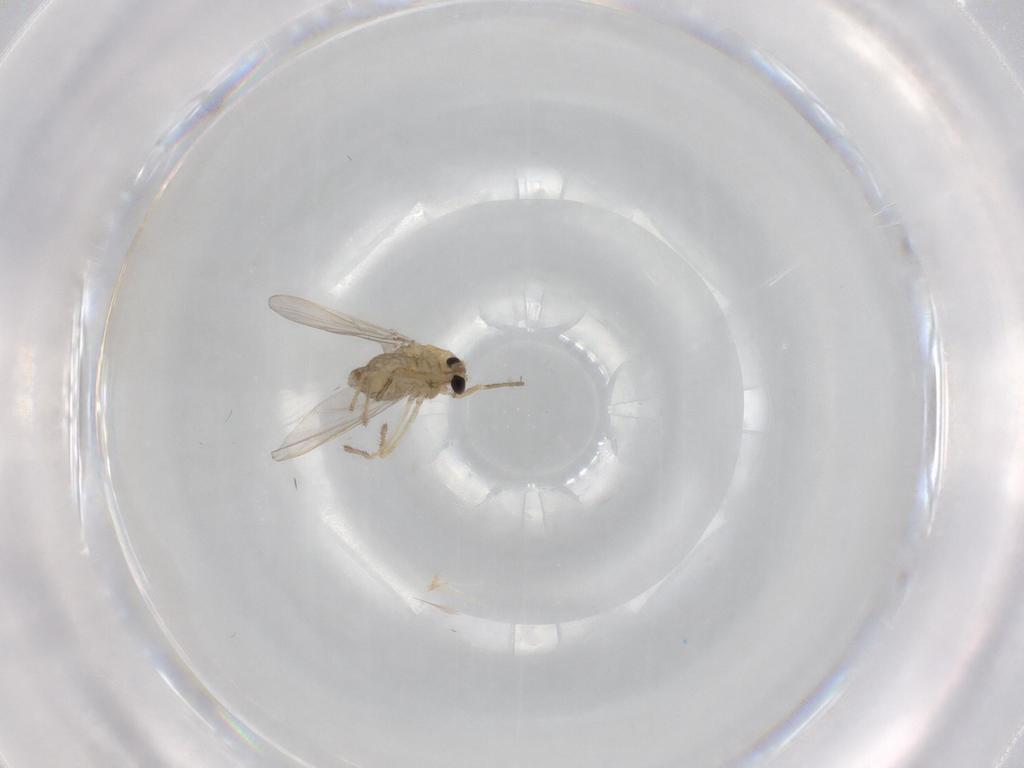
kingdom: Animalia
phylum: Arthropoda
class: Insecta
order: Diptera
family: Chironomidae
